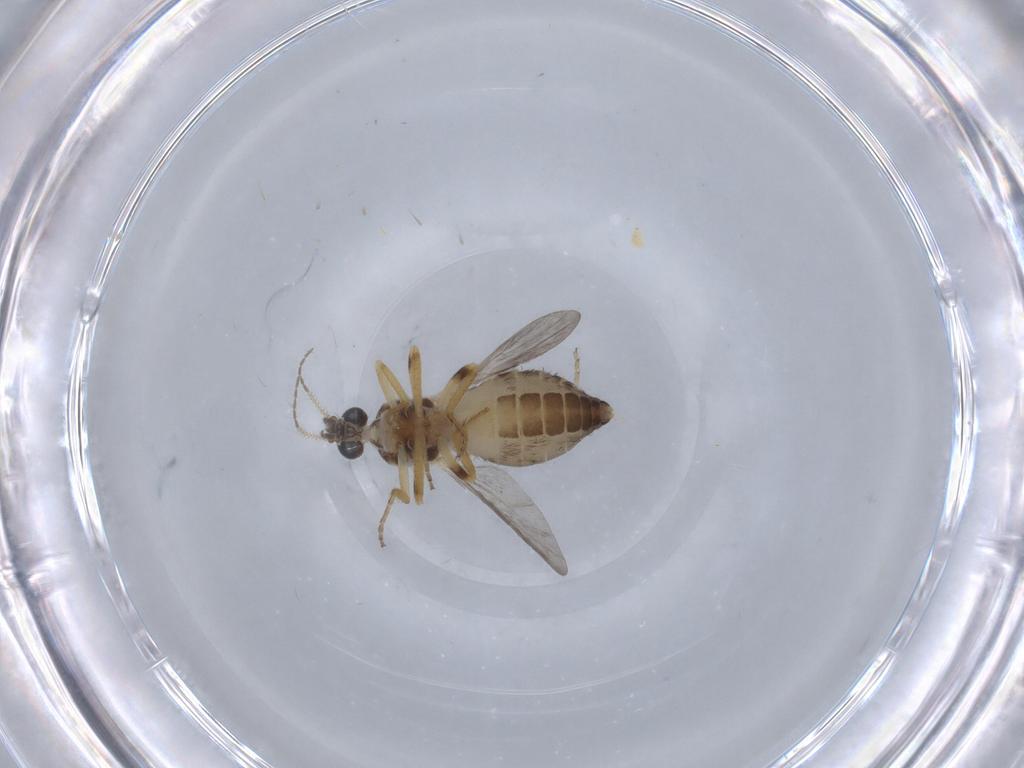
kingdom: Animalia
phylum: Arthropoda
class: Insecta
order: Diptera
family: Ceratopogonidae
